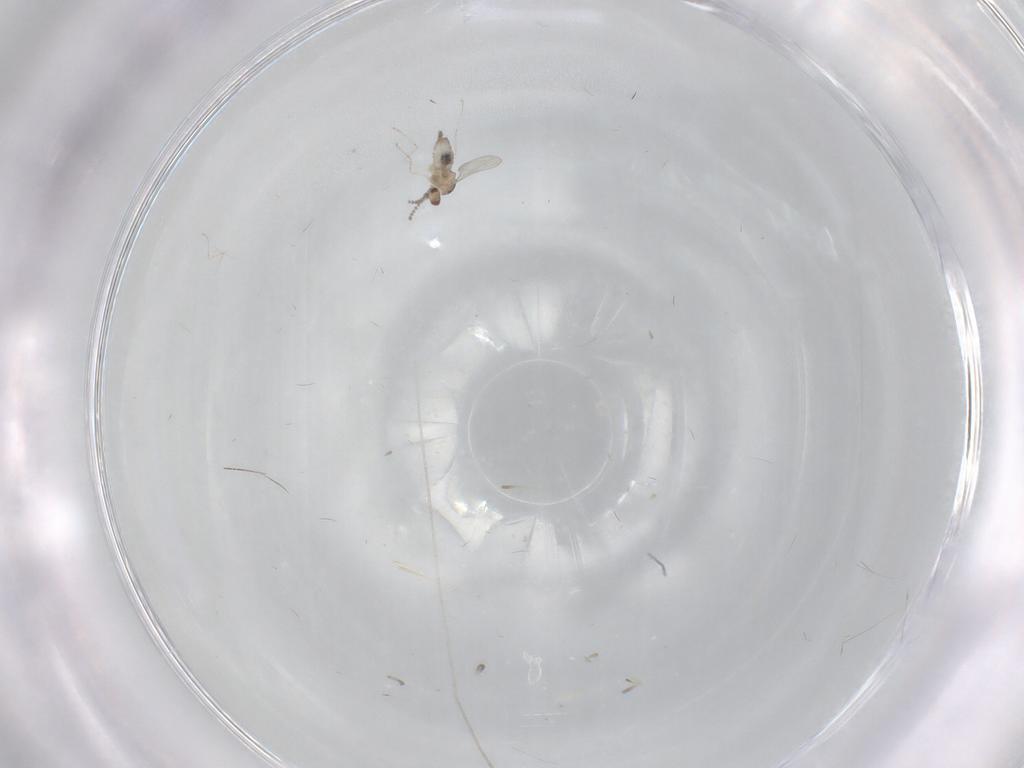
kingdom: Animalia
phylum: Arthropoda
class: Insecta
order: Diptera
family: Cecidomyiidae
